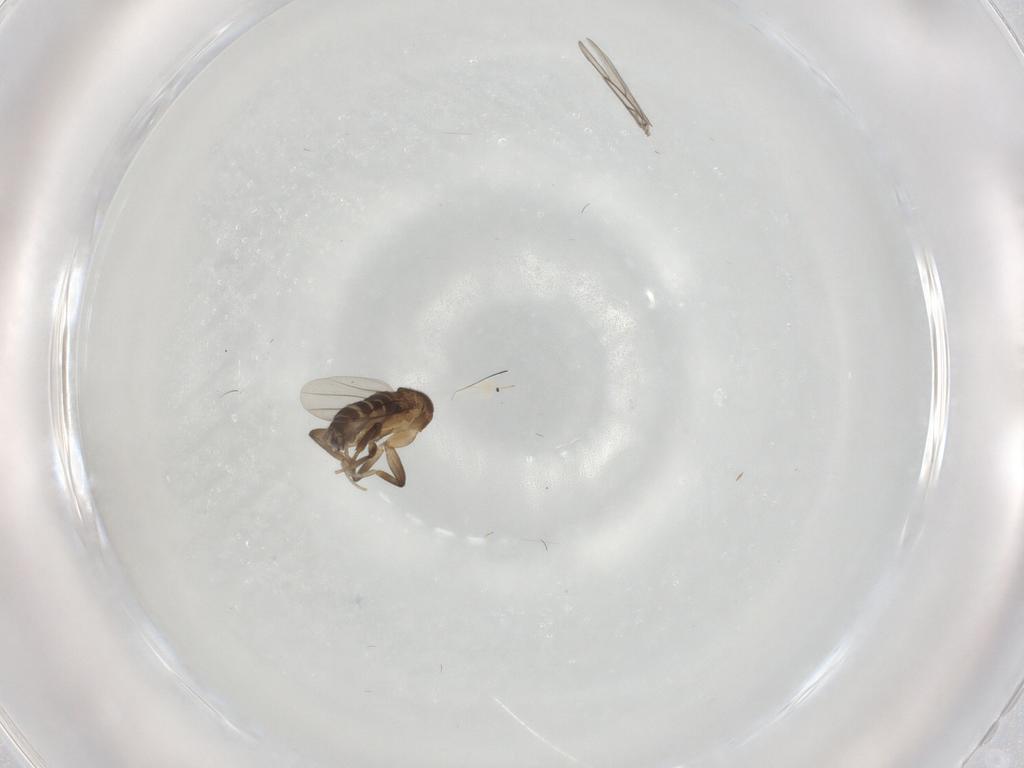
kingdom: Animalia
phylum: Arthropoda
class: Insecta
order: Diptera
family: Phoridae
